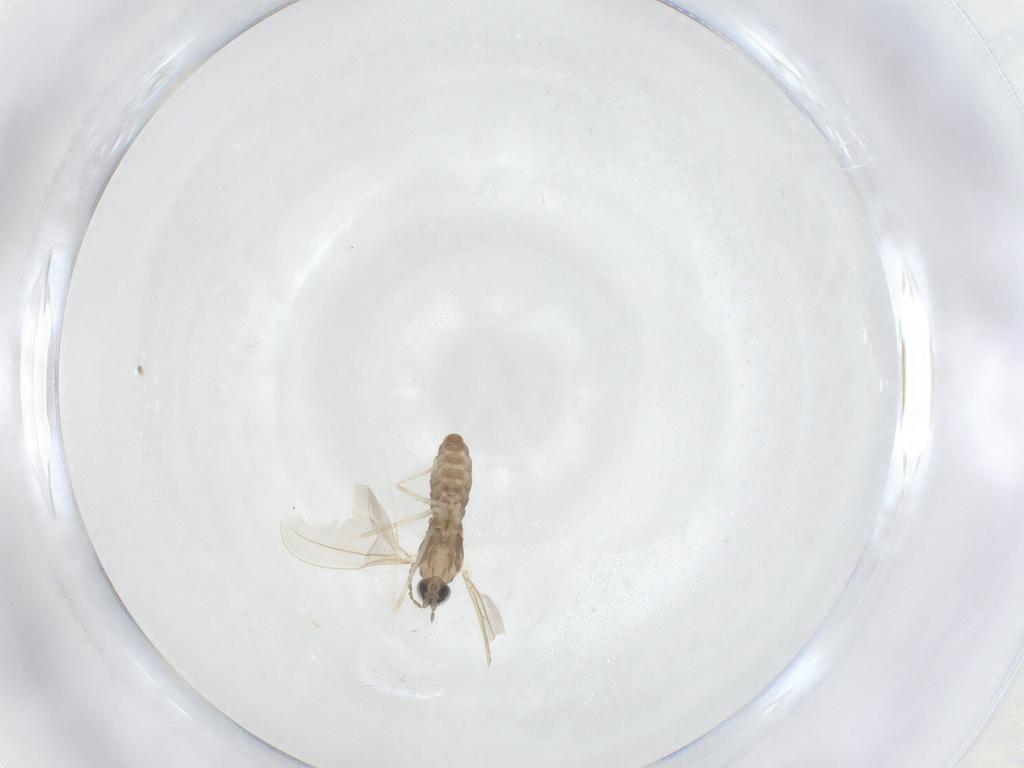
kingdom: Animalia
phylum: Arthropoda
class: Insecta
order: Diptera
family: Cecidomyiidae
